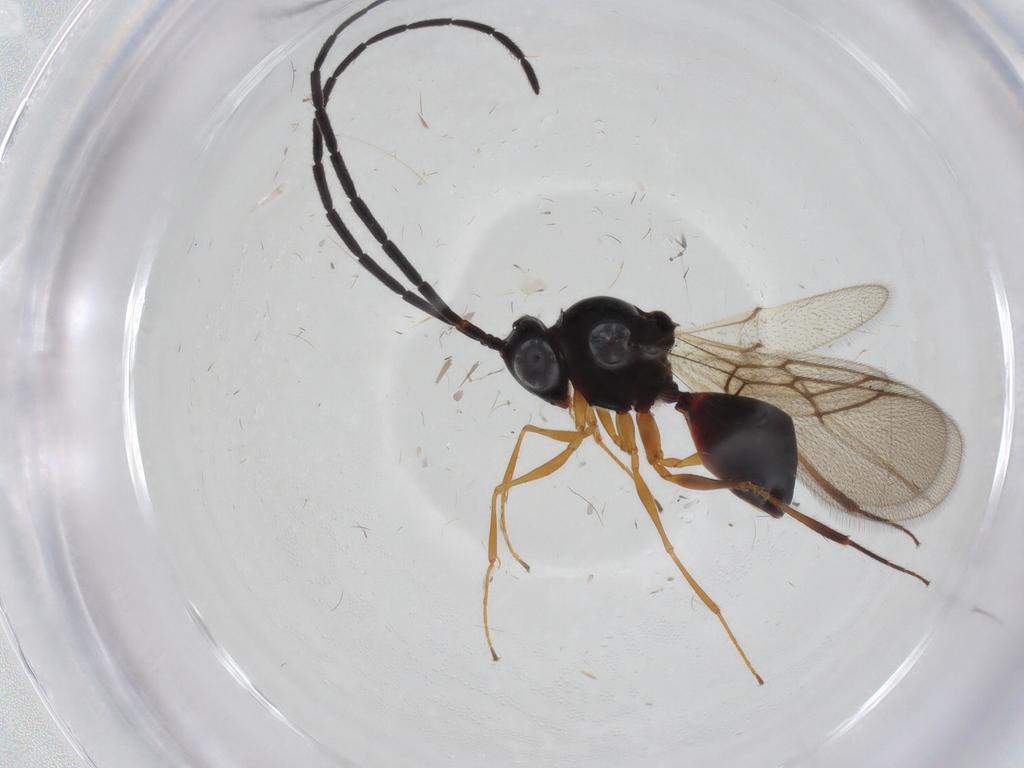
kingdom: Animalia
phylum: Arthropoda
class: Insecta
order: Hymenoptera
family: Figitidae
